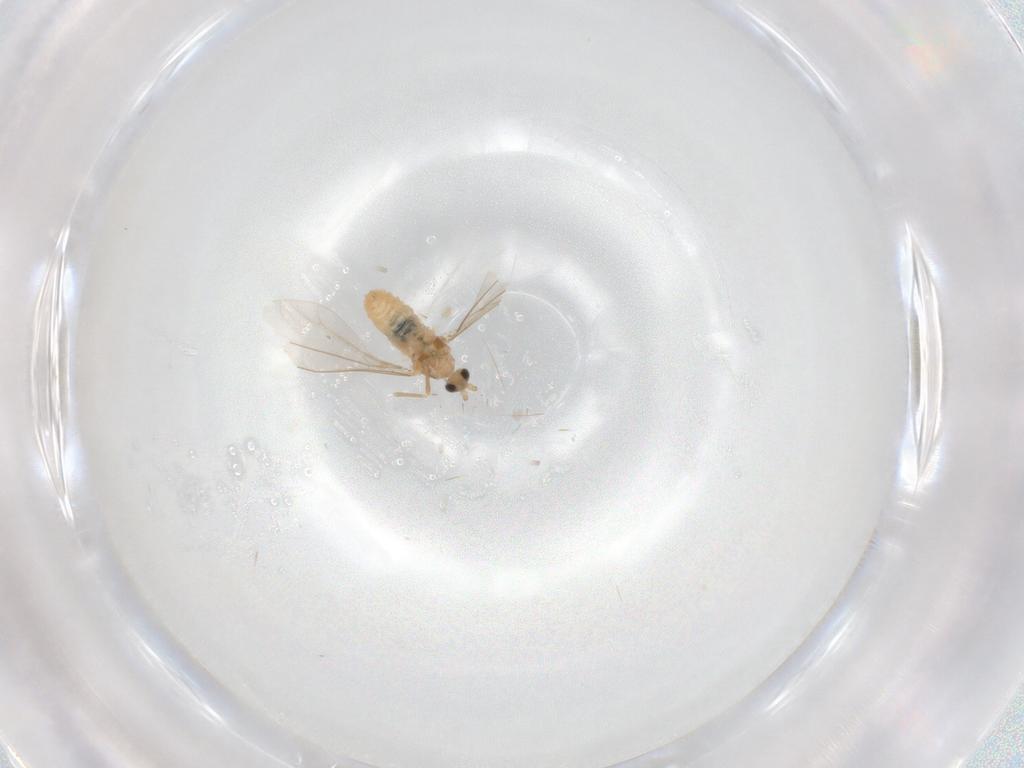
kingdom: Animalia
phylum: Arthropoda
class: Insecta
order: Diptera
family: Cecidomyiidae
